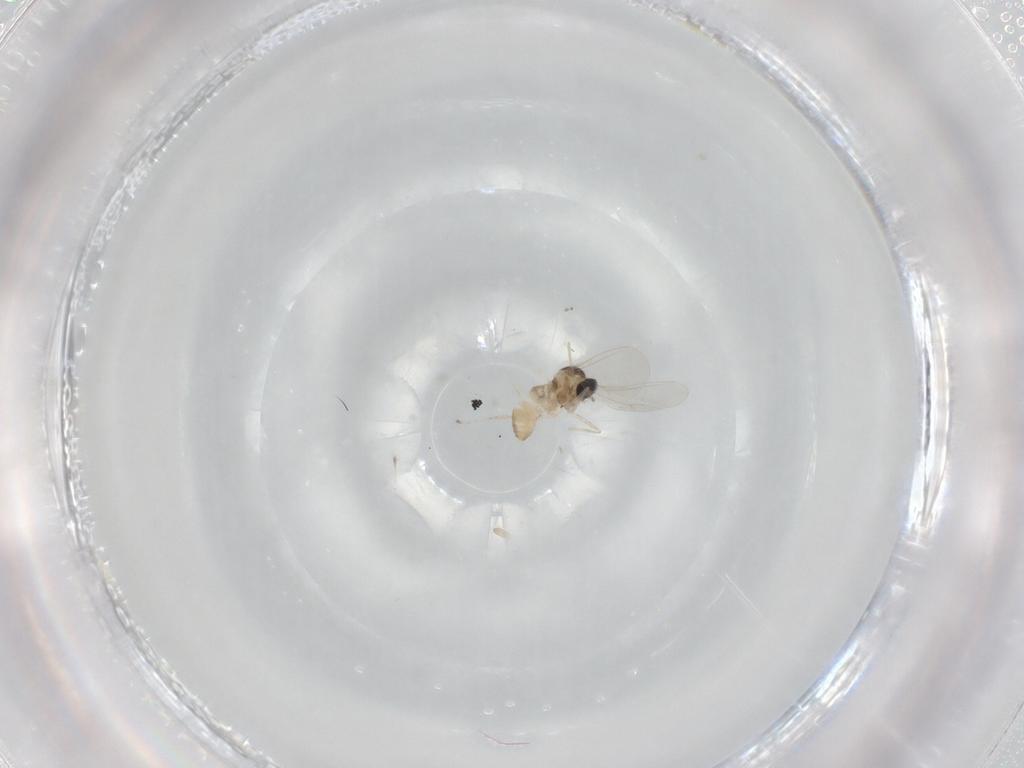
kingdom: Animalia
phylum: Arthropoda
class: Insecta
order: Diptera
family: Cecidomyiidae
